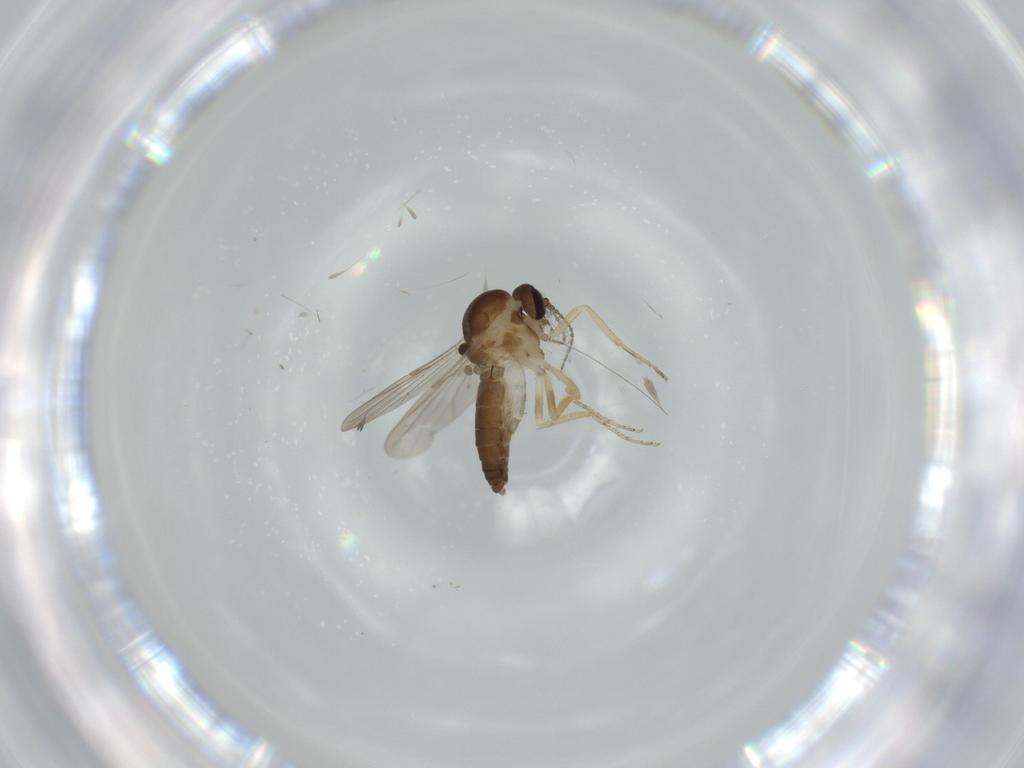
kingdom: Animalia
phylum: Arthropoda
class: Insecta
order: Diptera
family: Ceratopogonidae
